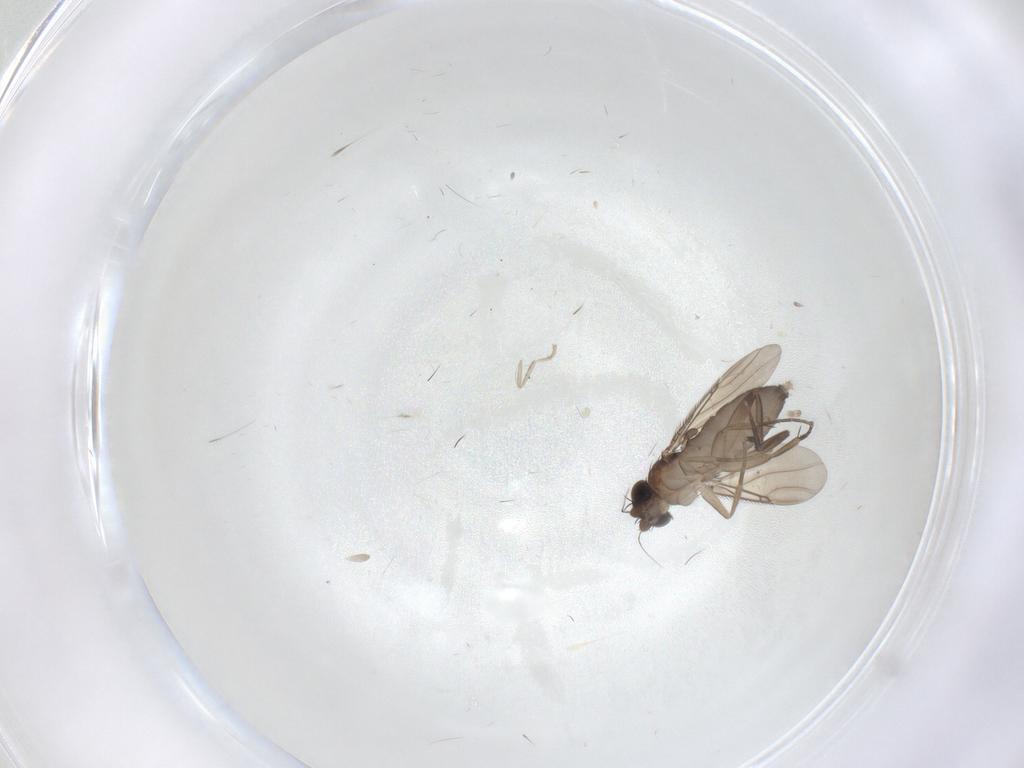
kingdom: Animalia
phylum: Arthropoda
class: Insecta
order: Diptera
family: Phoridae
